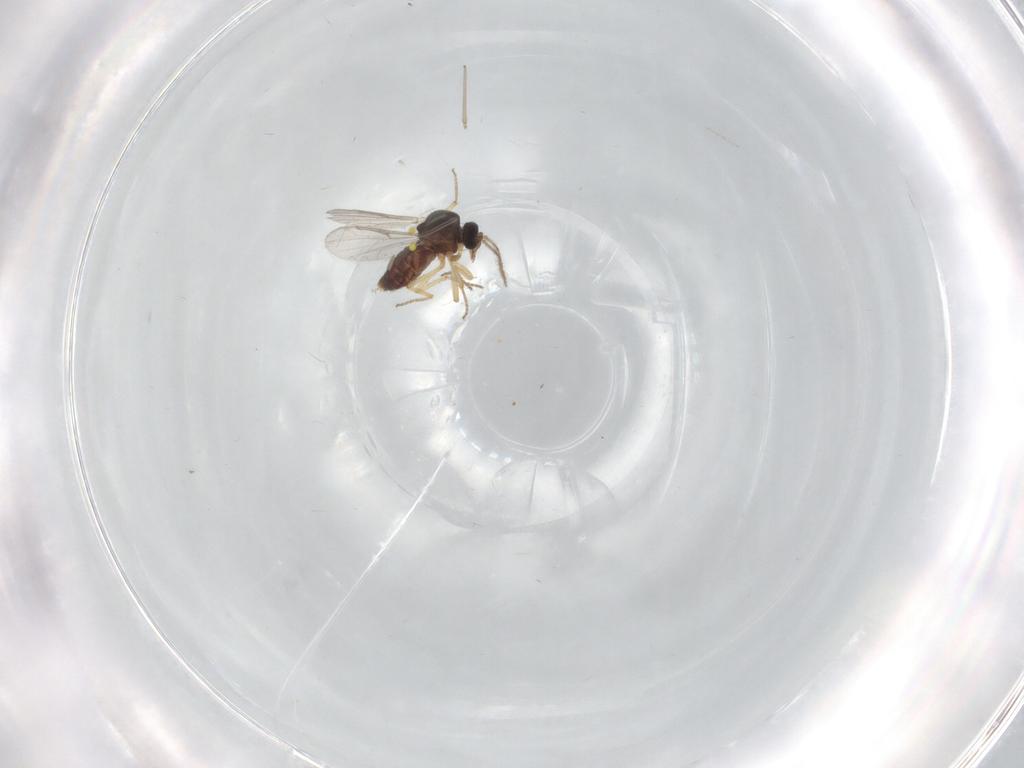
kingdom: Animalia
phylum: Arthropoda
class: Insecta
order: Diptera
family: Ceratopogonidae
